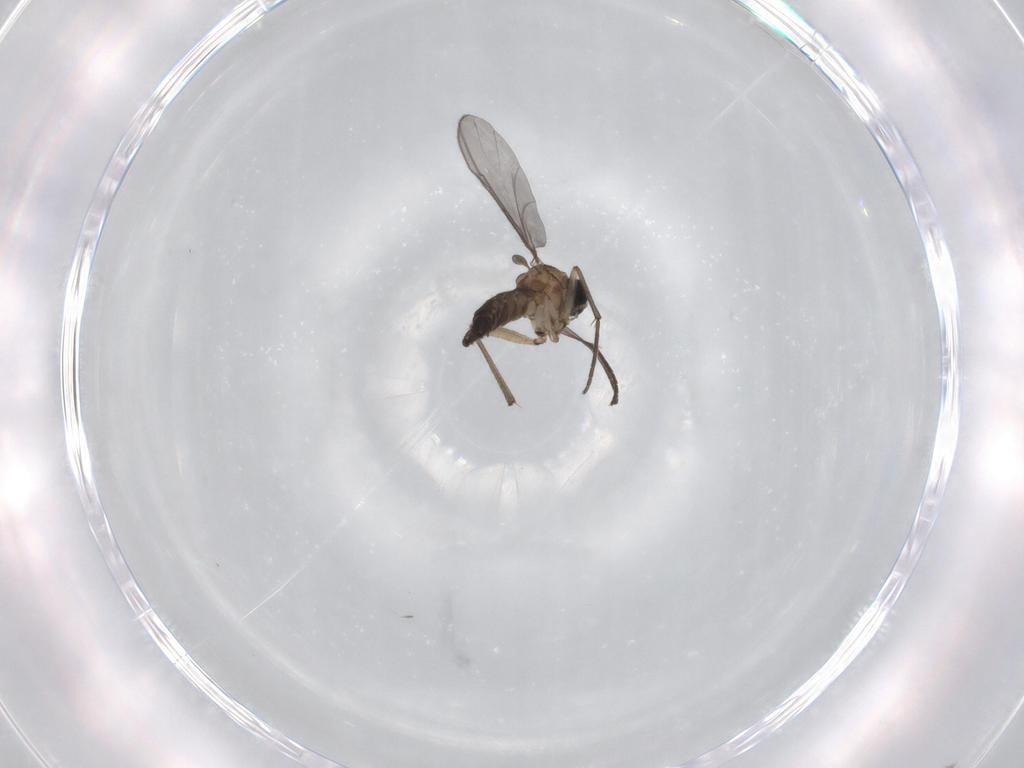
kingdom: Animalia
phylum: Arthropoda
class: Insecta
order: Diptera
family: Sciaridae
